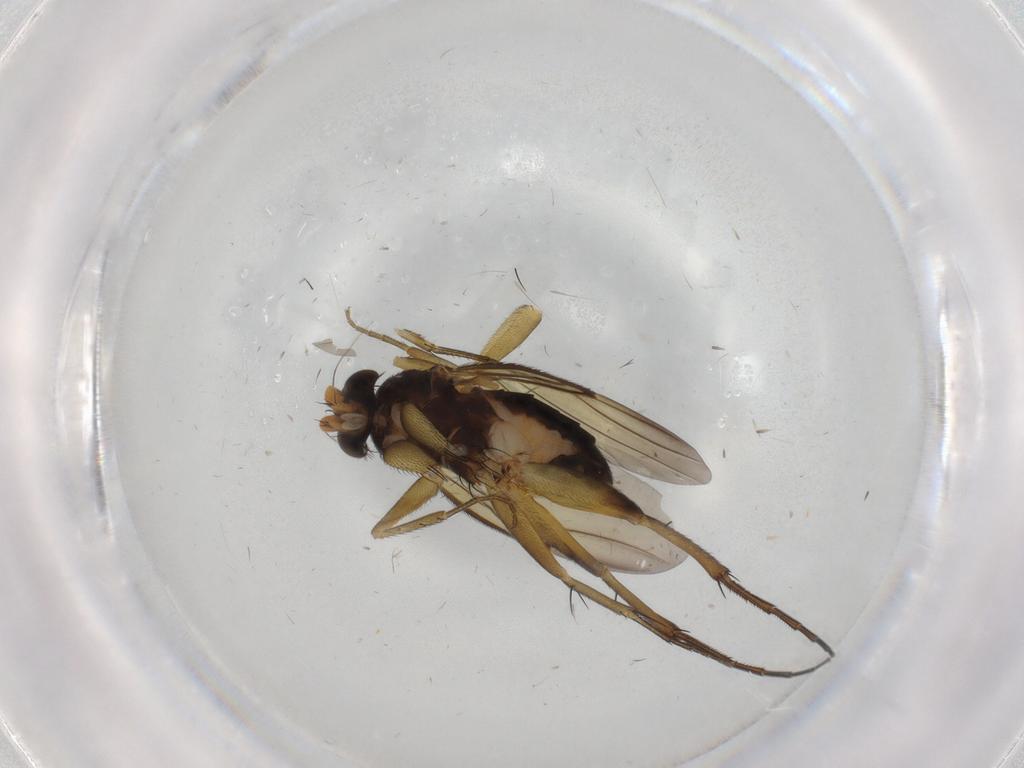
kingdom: Animalia
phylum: Arthropoda
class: Insecta
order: Diptera
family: Phoridae
